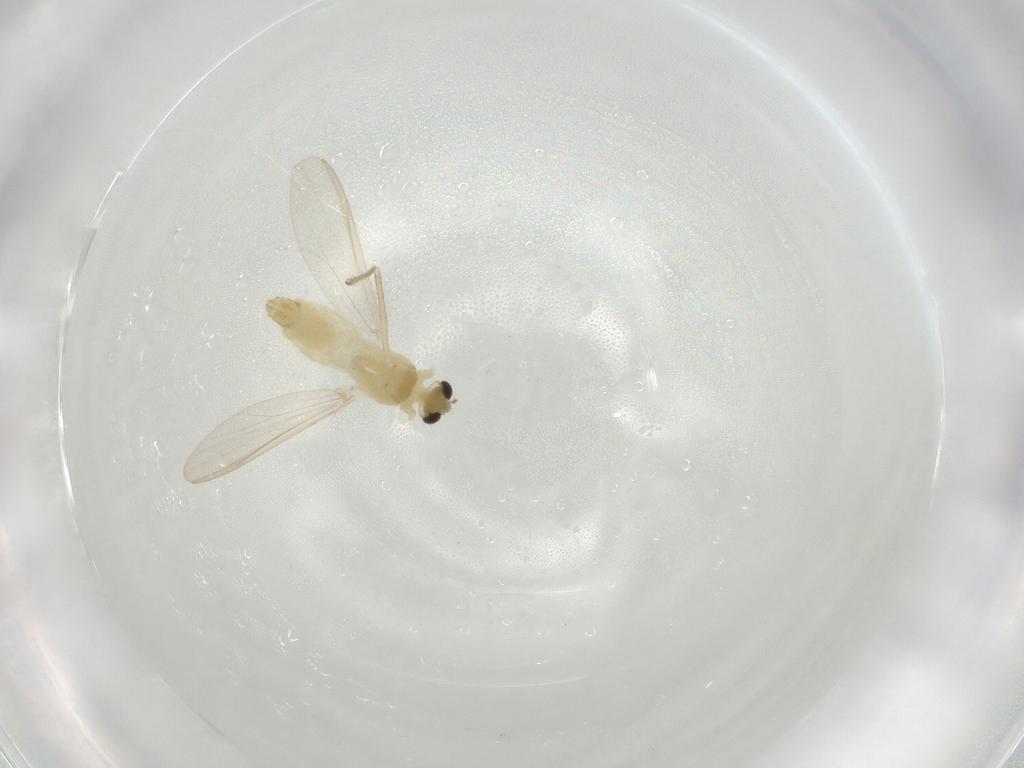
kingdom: Animalia
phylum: Arthropoda
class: Insecta
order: Diptera
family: Chironomidae
